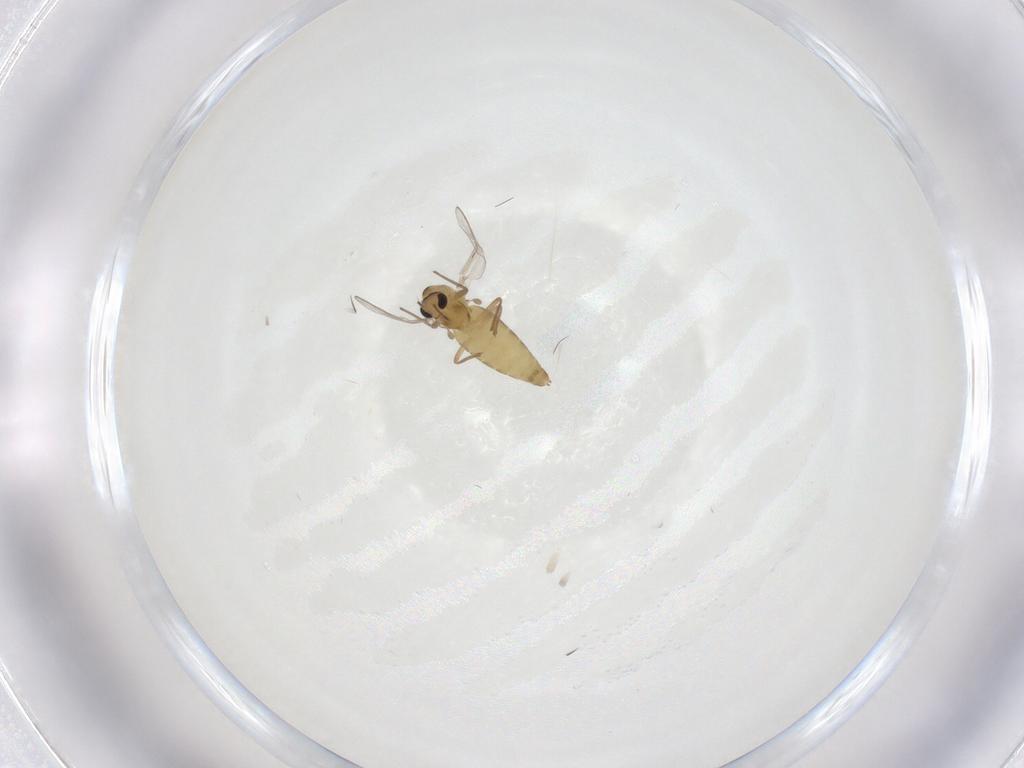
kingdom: Animalia
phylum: Arthropoda
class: Insecta
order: Diptera
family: Chironomidae
